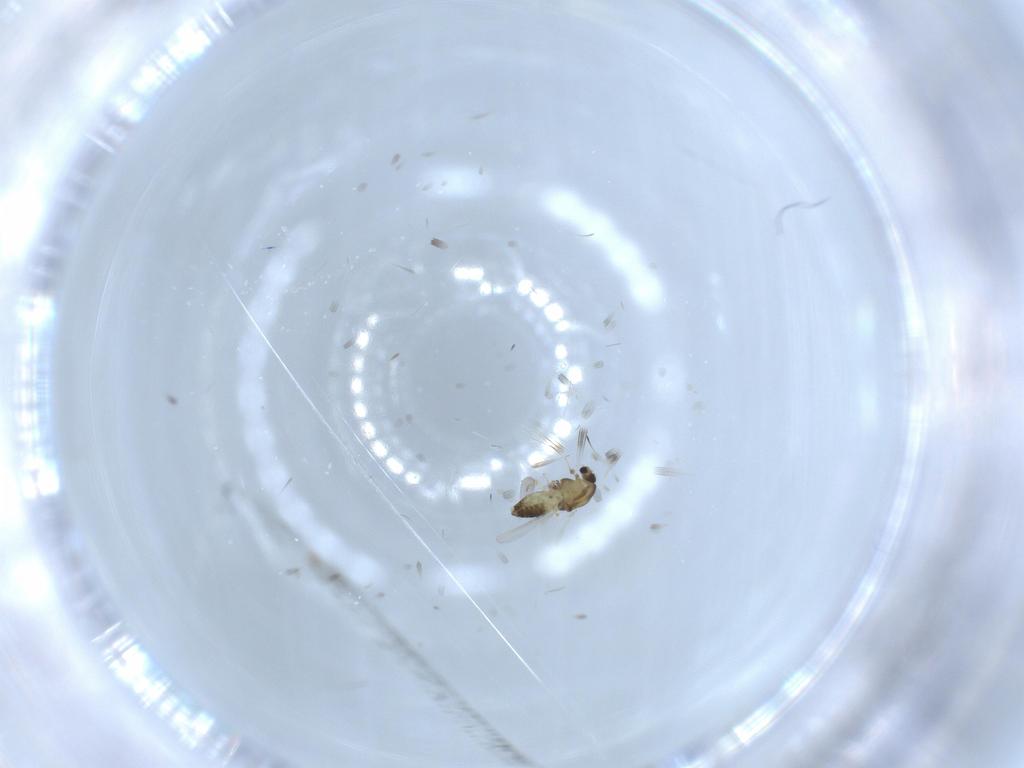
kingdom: Animalia
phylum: Arthropoda
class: Insecta
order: Diptera
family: Chironomidae
